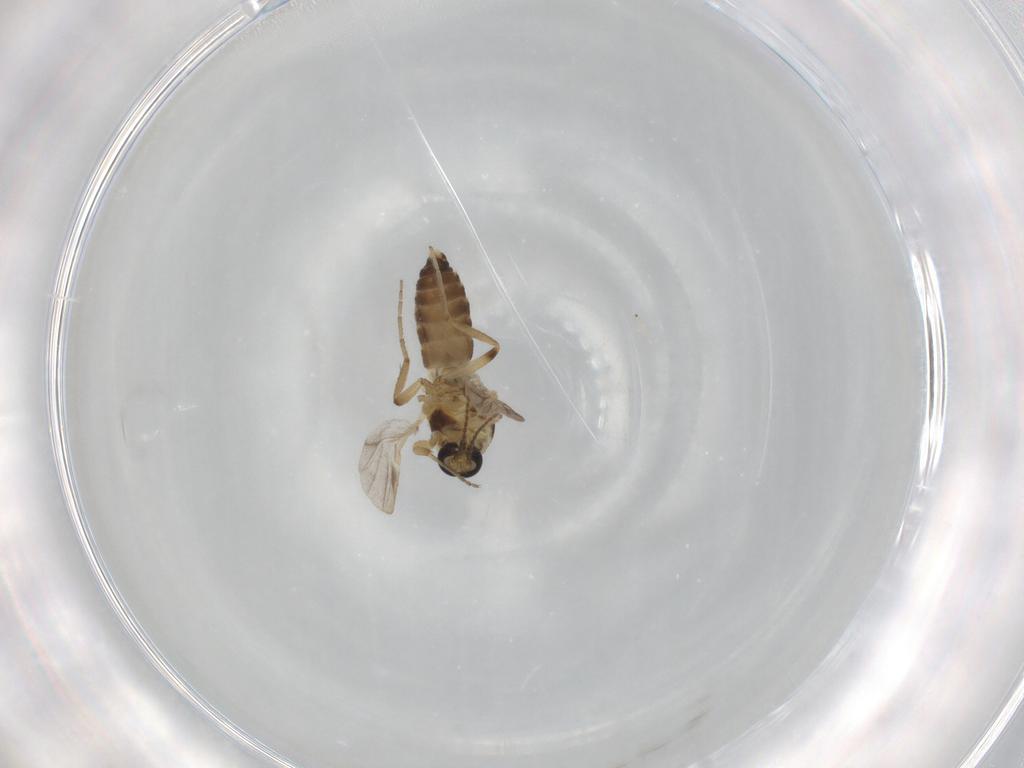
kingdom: Animalia
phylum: Arthropoda
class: Insecta
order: Diptera
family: Ceratopogonidae
